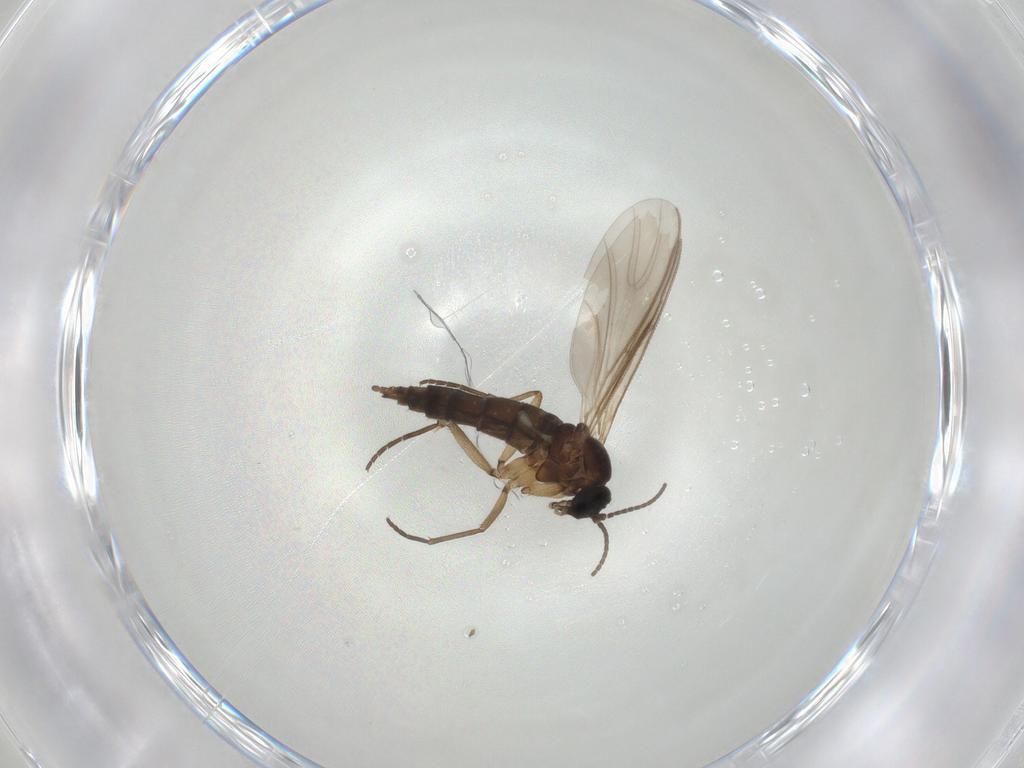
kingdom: Animalia
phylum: Arthropoda
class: Insecta
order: Diptera
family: Sciaridae
